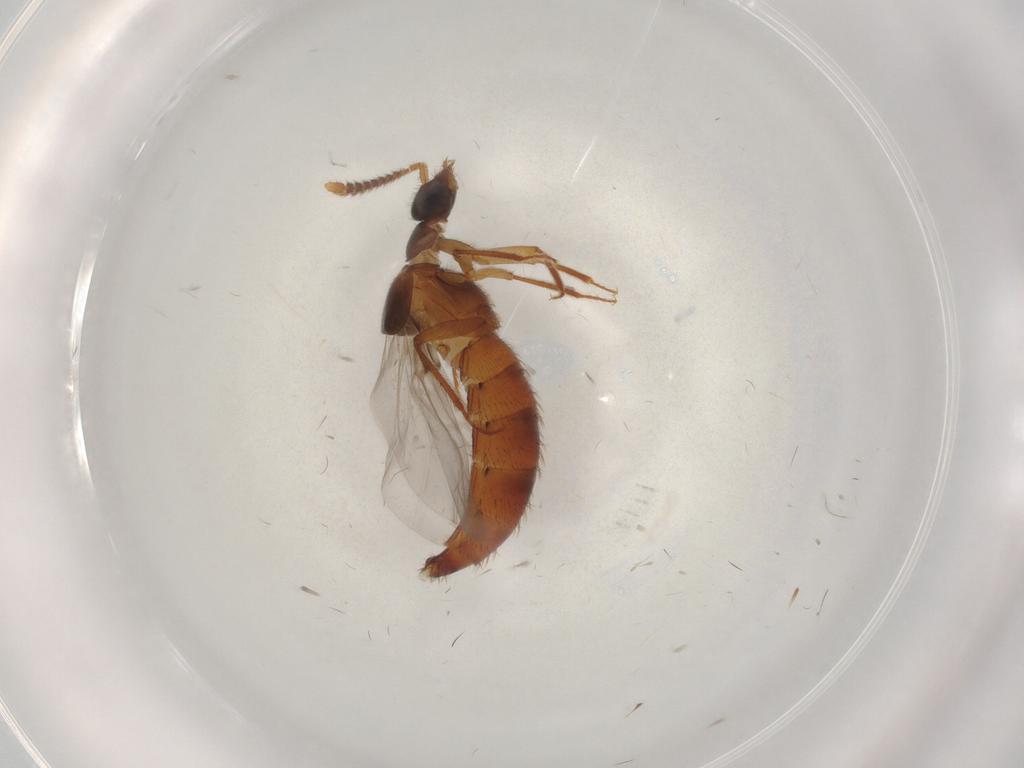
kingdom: Animalia
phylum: Arthropoda
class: Insecta
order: Coleoptera
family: Staphylinidae
